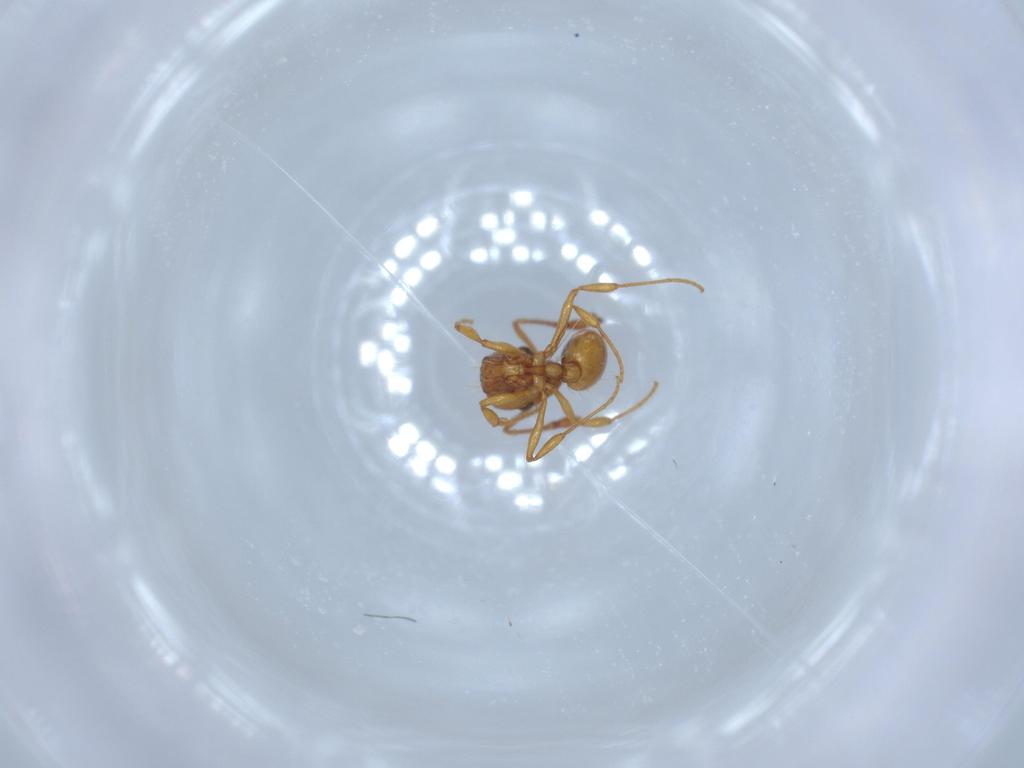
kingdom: Animalia
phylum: Arthropoda
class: Insecta
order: Hymenoptera
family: Formicidae
